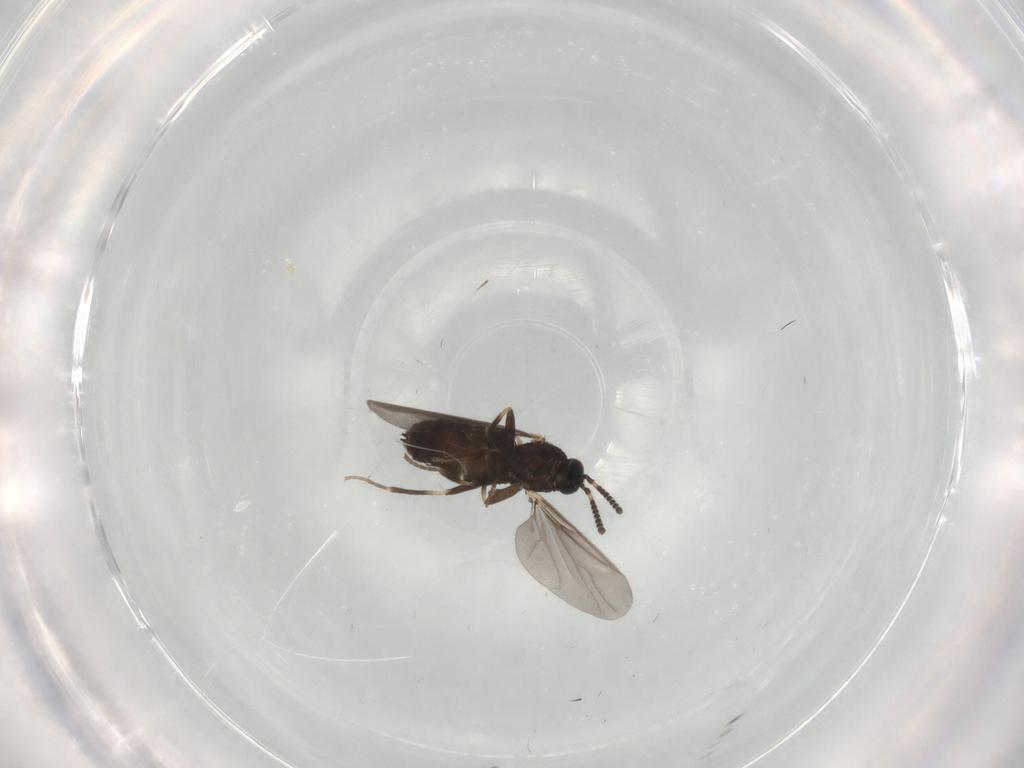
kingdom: Animalia
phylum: Arthropoda
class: Insecta
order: Diptera
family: Scatopsidae
